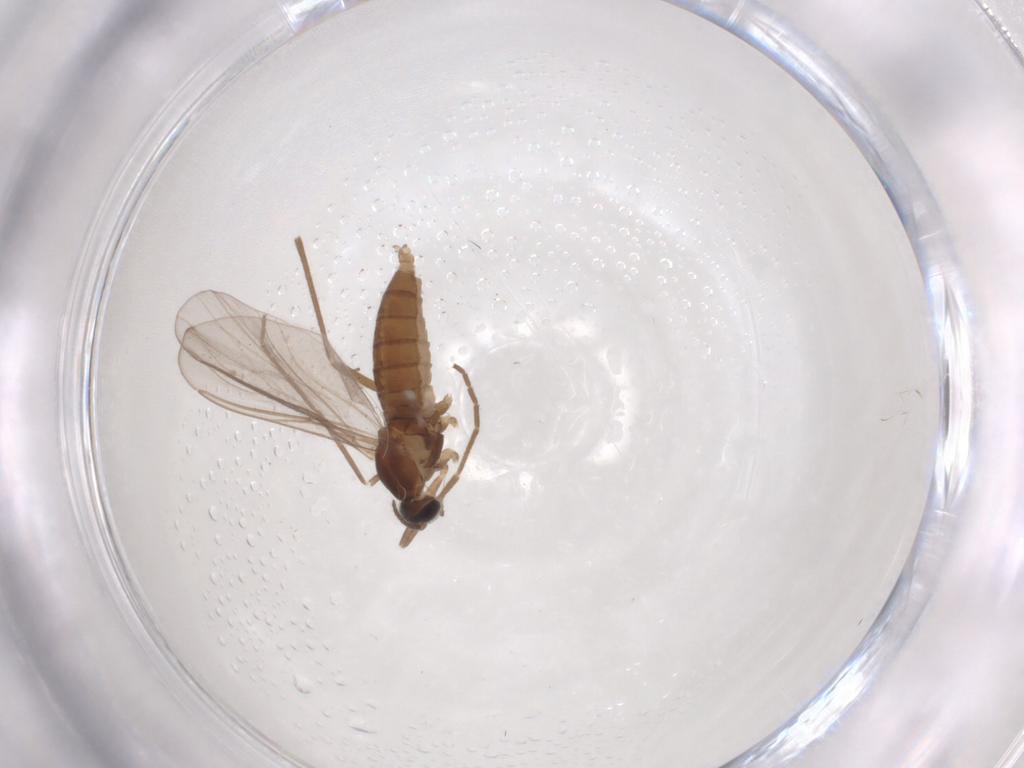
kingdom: Animalia
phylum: Arthropoda
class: Insecta
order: Diptera
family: Cecidomyiidae
